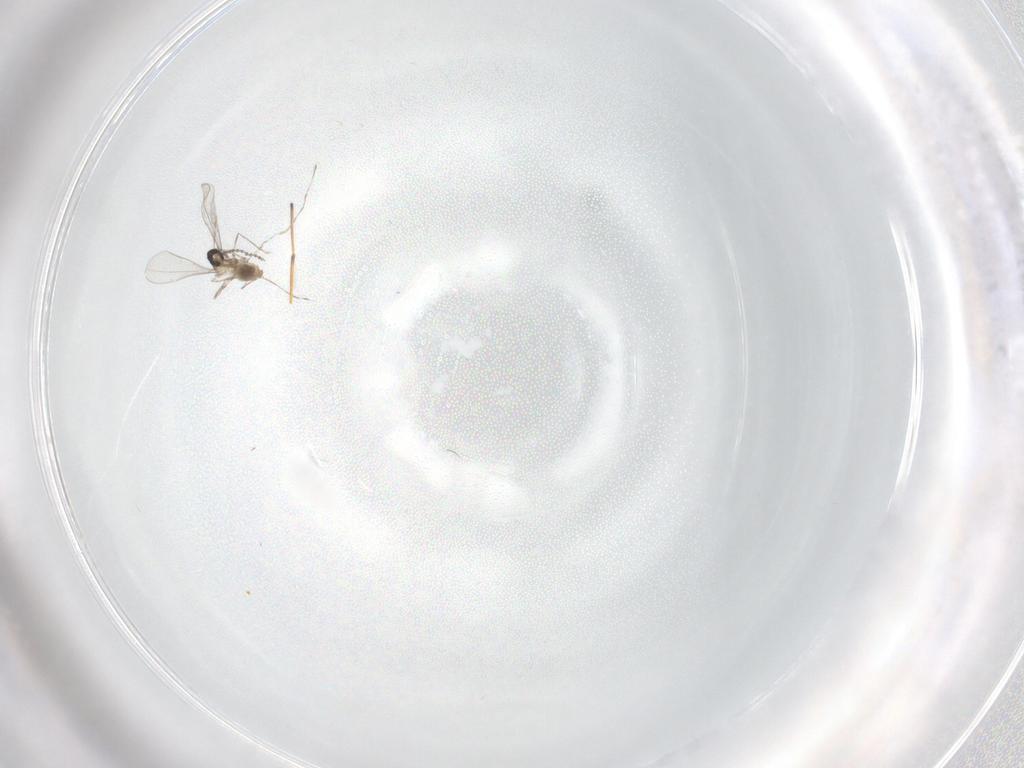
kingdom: Animalia
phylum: Arthropoda
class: Insecta
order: Diptera
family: Cecidomyiidae
